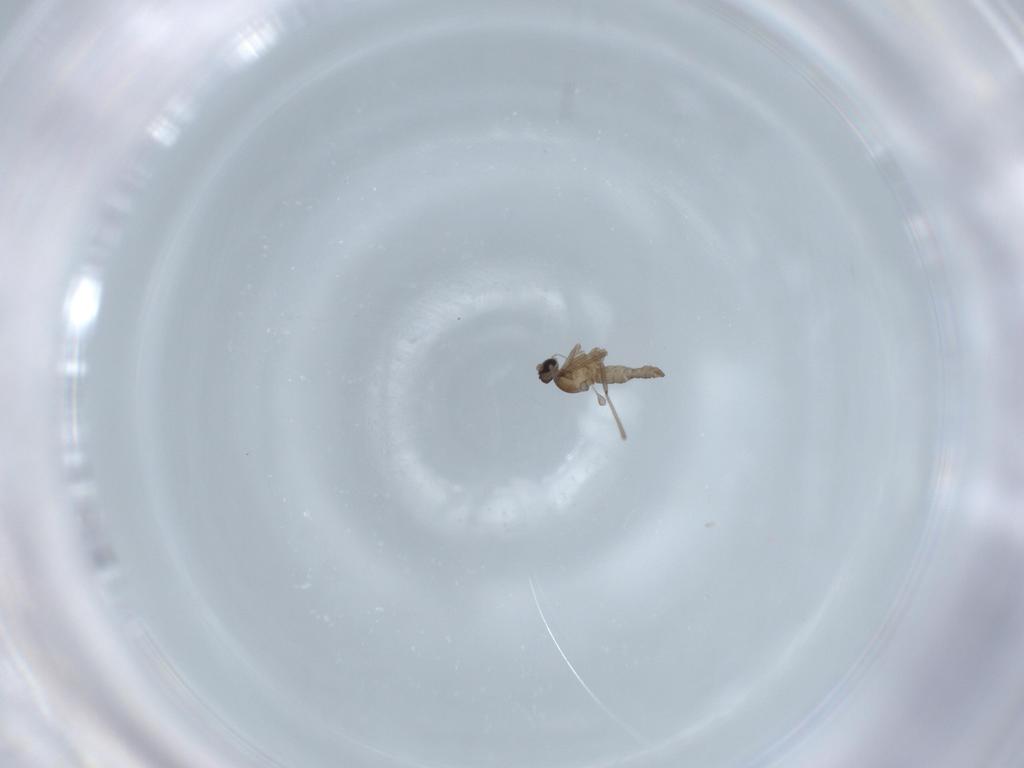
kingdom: Animalia
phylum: Arthropoda
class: Insecta
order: Diptera
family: Cecidomyiidae
